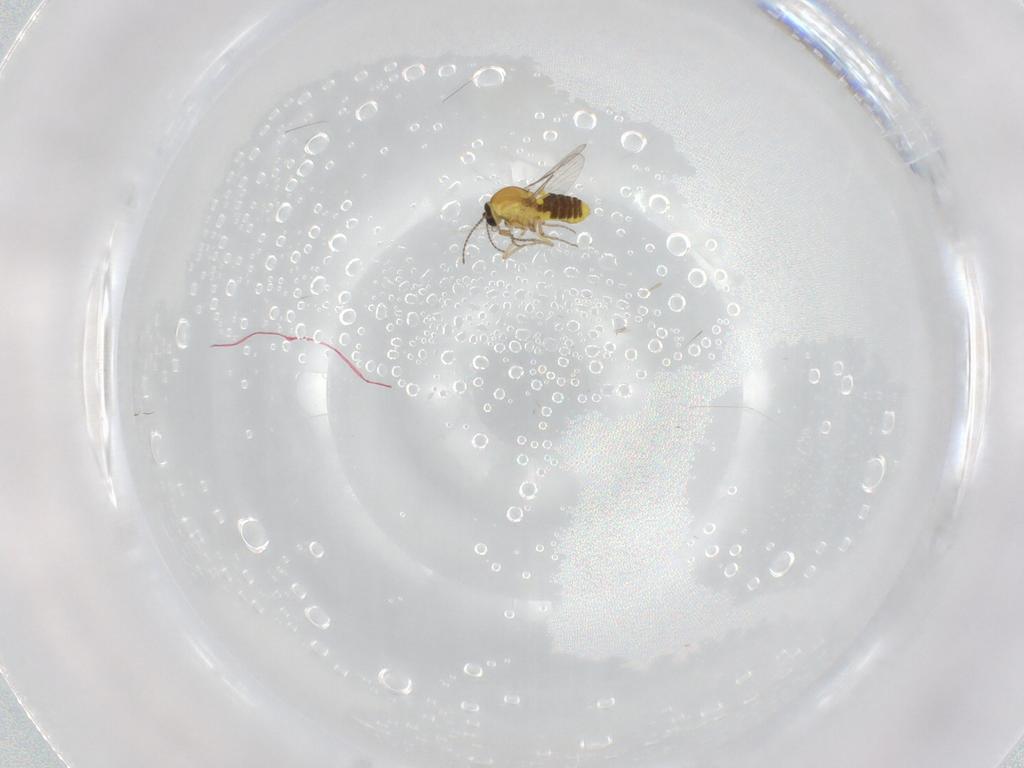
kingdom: Animalia
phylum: Arthropoda
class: Insecta
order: Diptera
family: Cecidomyiidae
